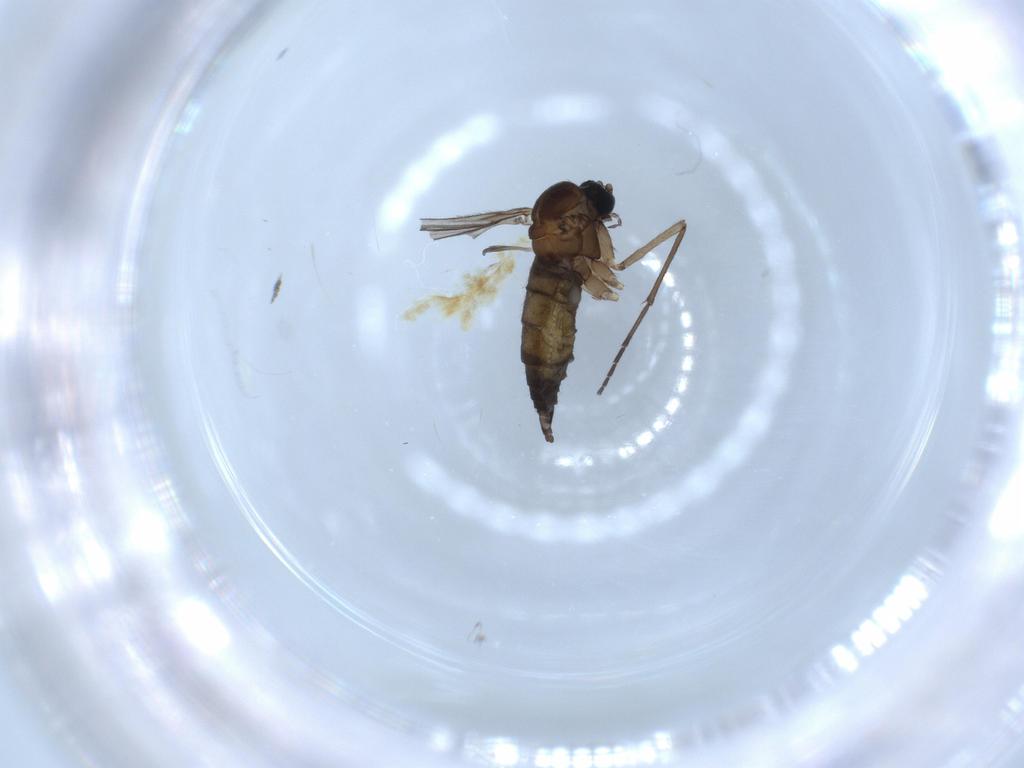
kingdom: Animalia
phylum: Arthropoda
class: Insecta
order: Diptera
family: Sciaridae
